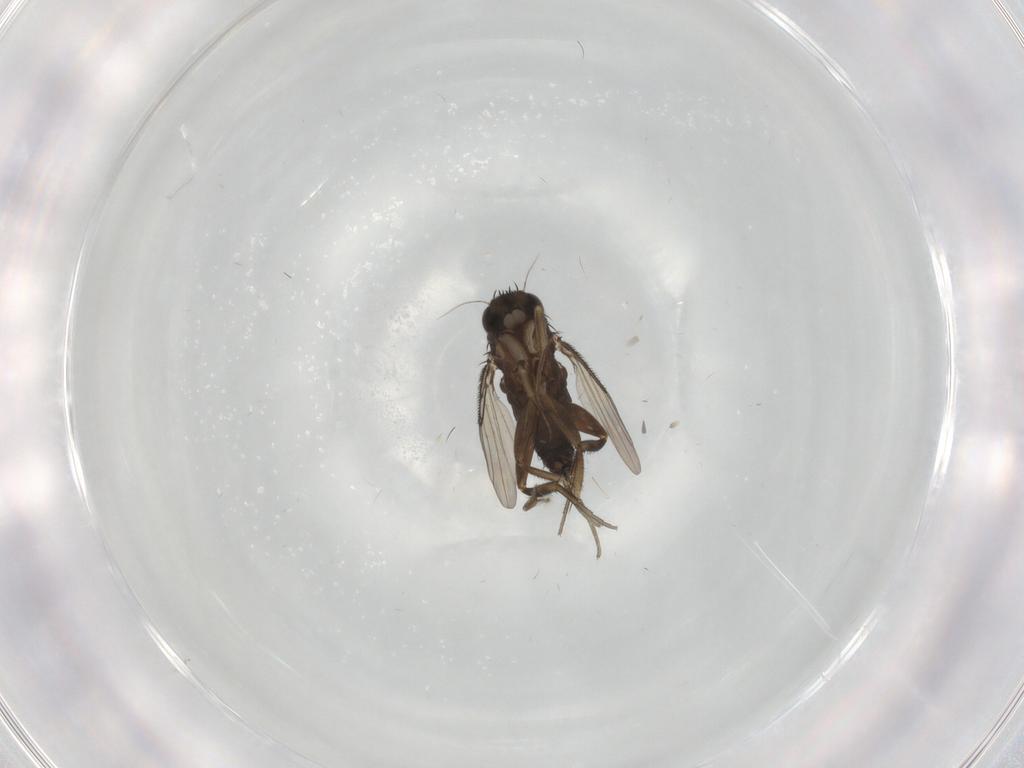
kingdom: Animalia
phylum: Arthropoda
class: Insecta
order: Diptera
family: Phoridae
